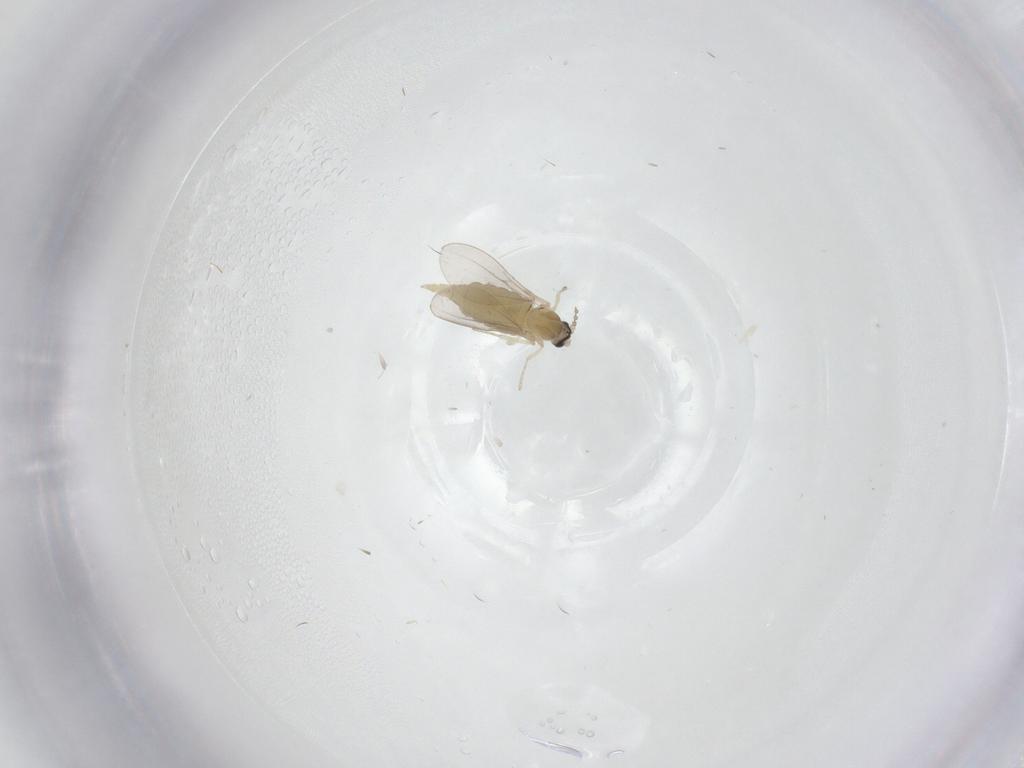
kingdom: Animalia
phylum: Arthropoda
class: Insecta
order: Diptera
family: Cecidomyiidae
